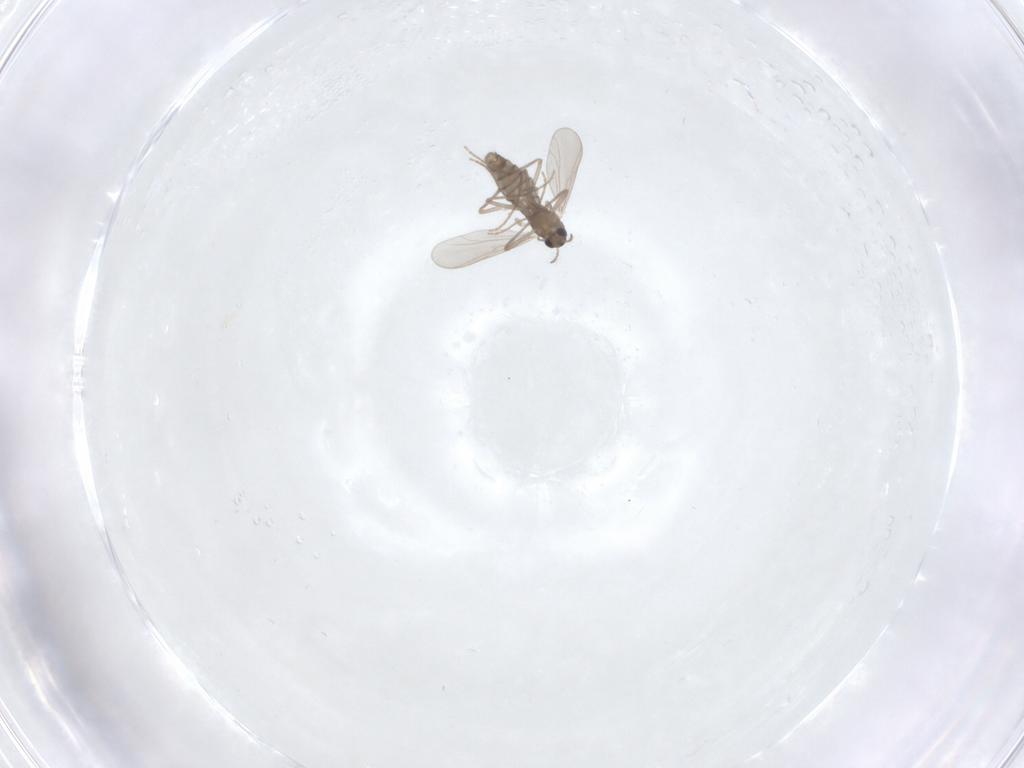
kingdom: Animalia
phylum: Arthropoda
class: Insecta
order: Diptera
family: Chironomidae
